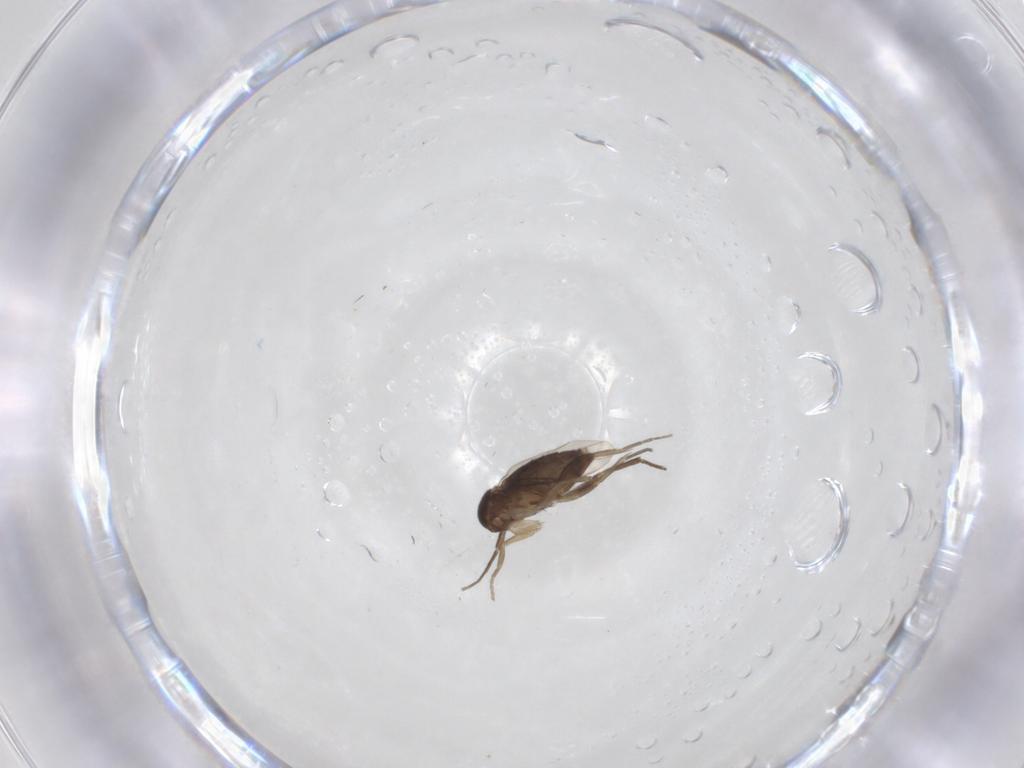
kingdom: Animalia
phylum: Arthropoda
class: Insecta
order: Diptera
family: Phoridae
